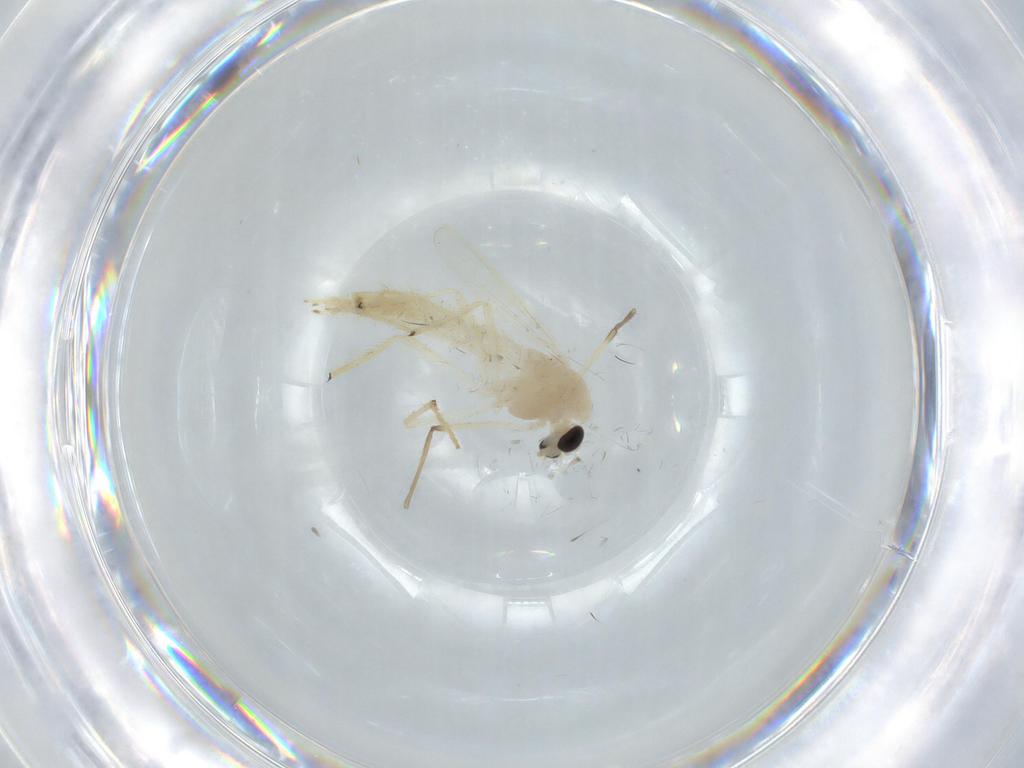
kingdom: Animalia
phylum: Arthropoda
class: Insecta
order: Diptera
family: Chironomidae
